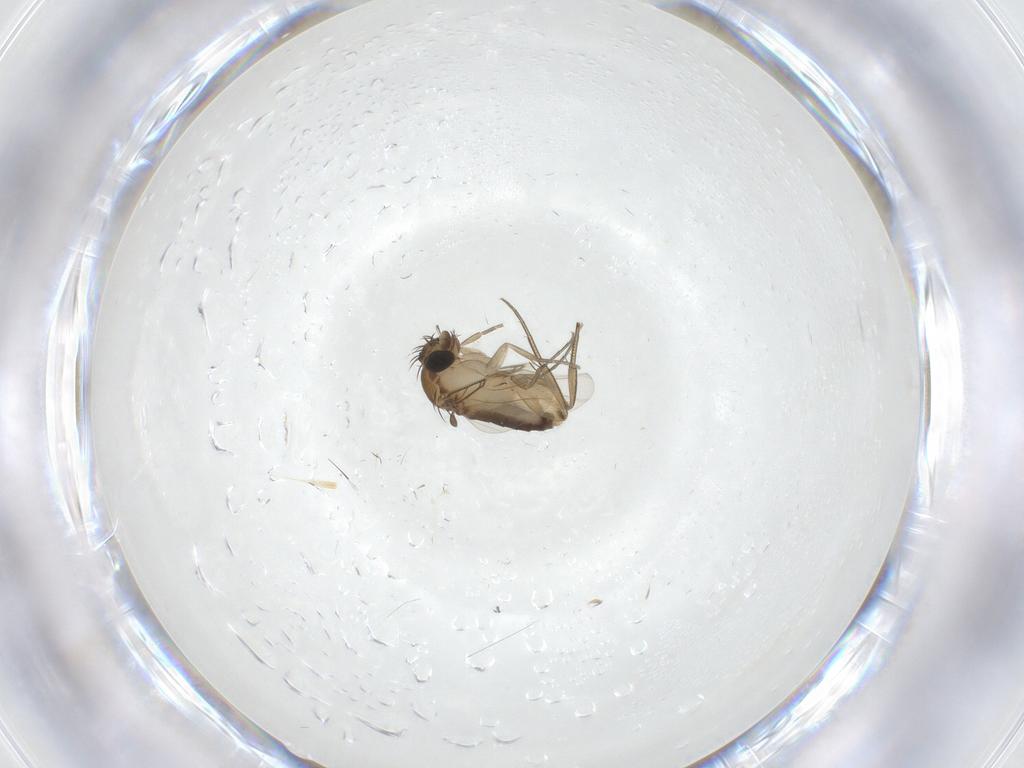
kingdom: Animalia
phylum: Arthropoda
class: Insecta
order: Diptera
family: Phoridae
